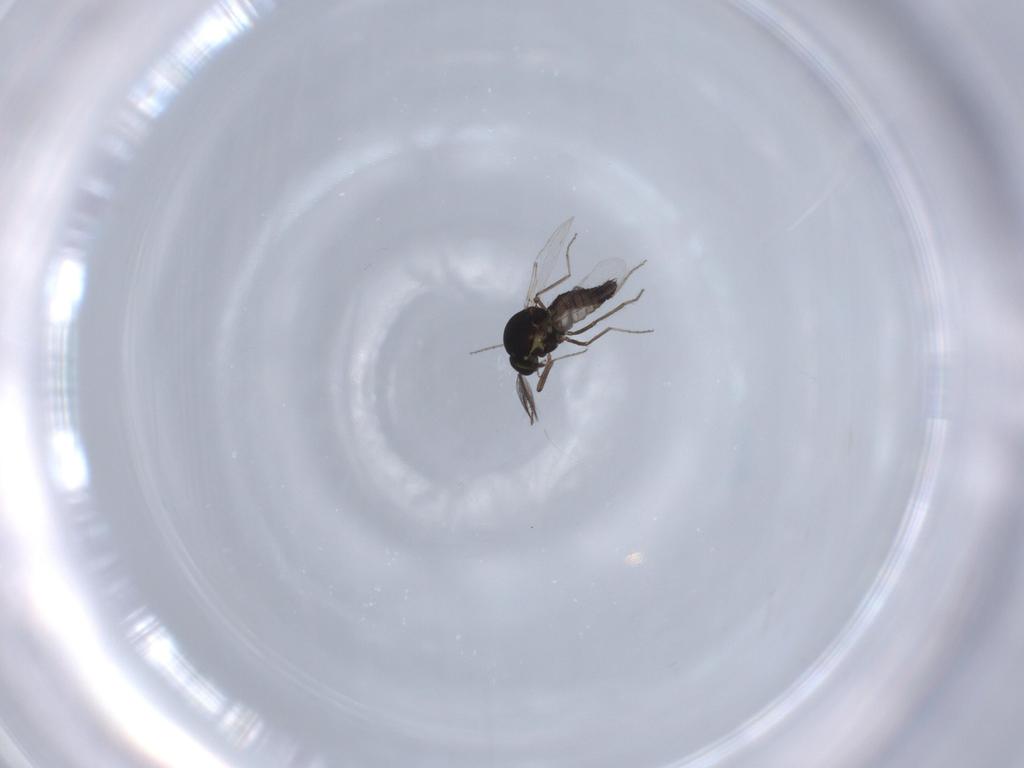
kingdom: Animalia
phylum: Arthropoda
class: Insecta
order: Diptera
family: Ceratopogonidae
